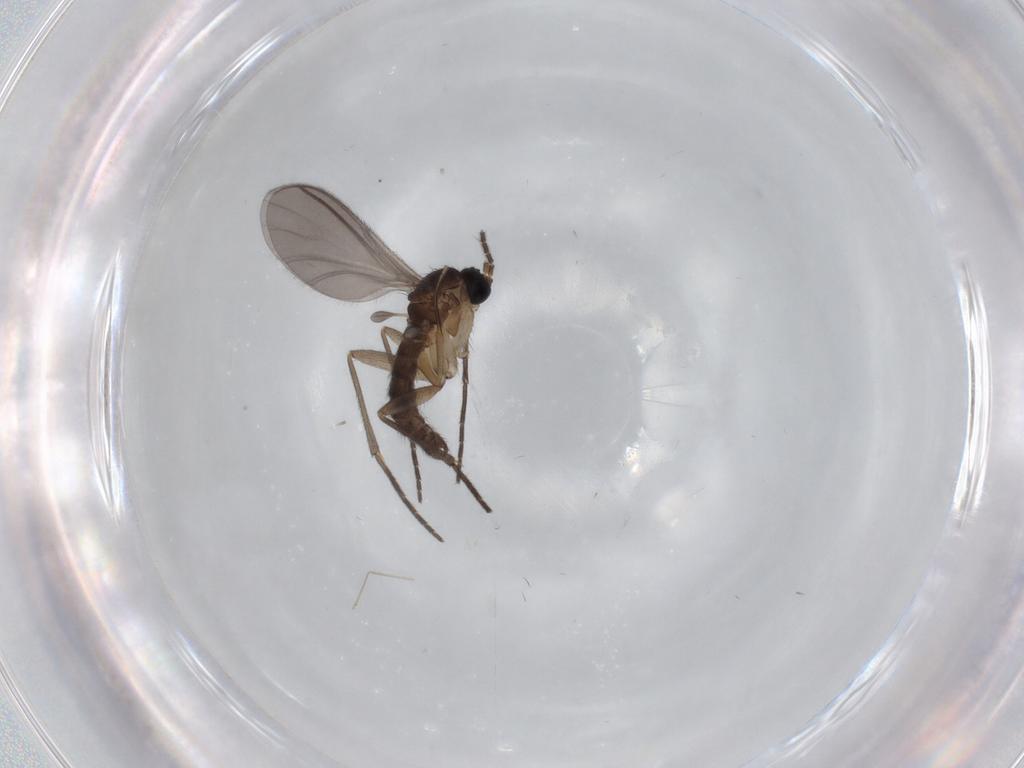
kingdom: Animalia
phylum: Arthropoda
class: Insecta
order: Diptera
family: Sciaridae
